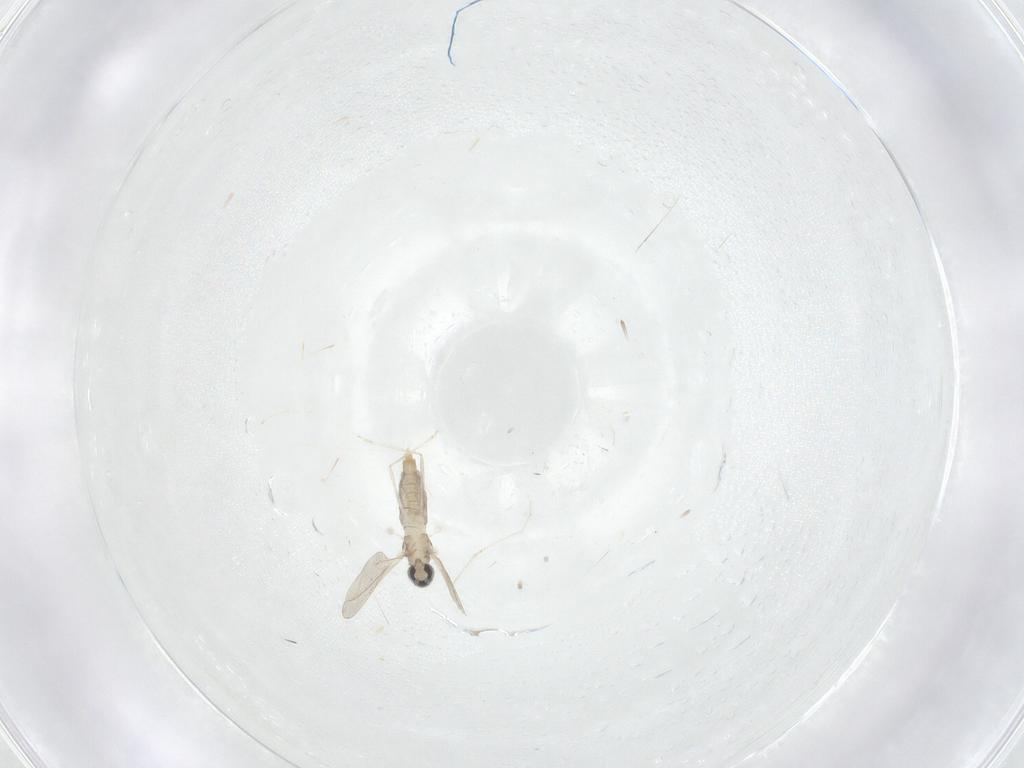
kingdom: Animalia
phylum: Arthropoda
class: Insecta
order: Diptera
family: Cecidomyiidae
